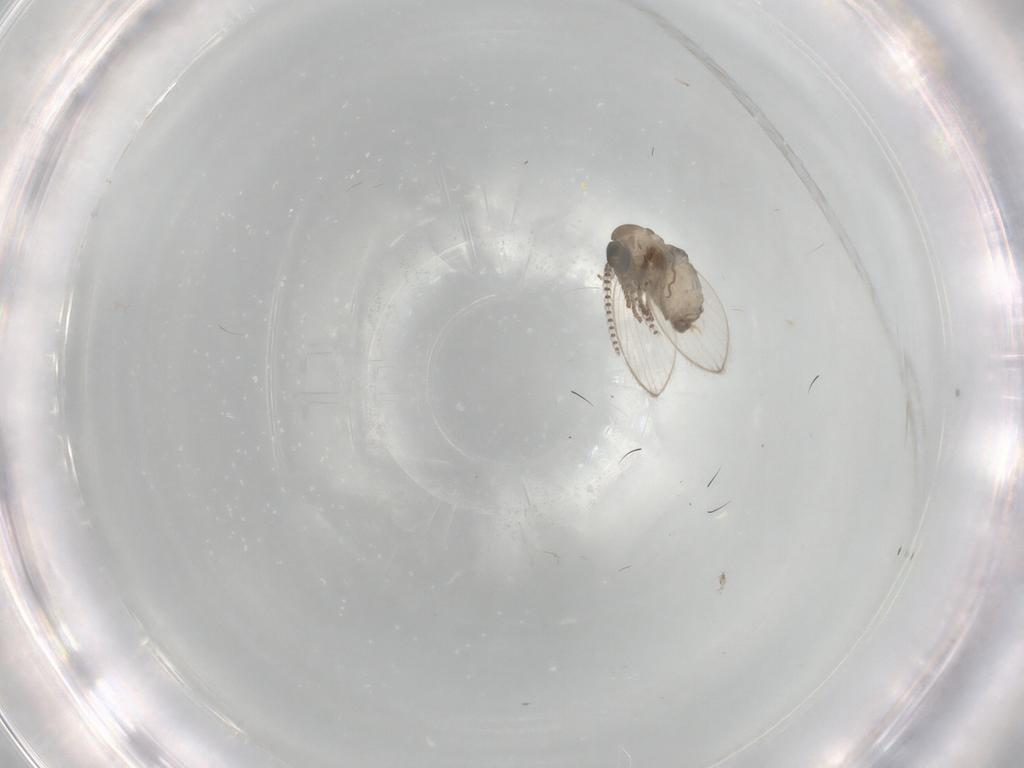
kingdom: Animalia
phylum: Arthropoda
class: Insecta
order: Diptera
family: Psychodidae
